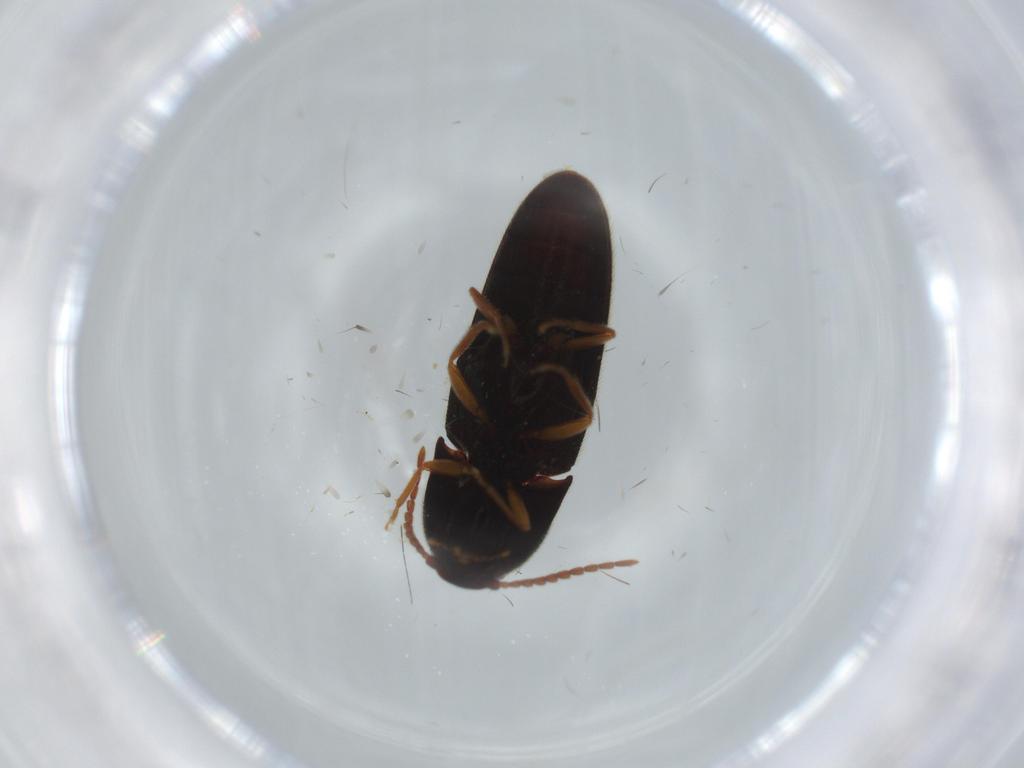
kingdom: Animalia
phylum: Arthropoda
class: Insecta
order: Coleoptera
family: Elateridae
